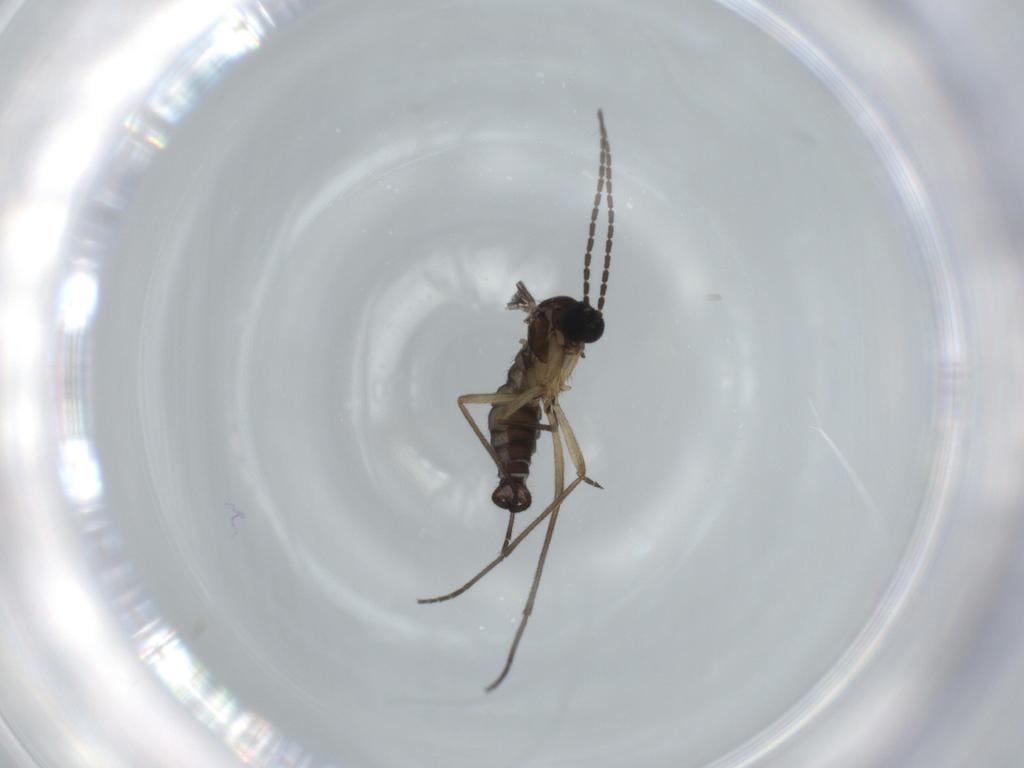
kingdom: Animalia
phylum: Arthropoda
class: Insecta
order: Diptera
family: Sciaridae
